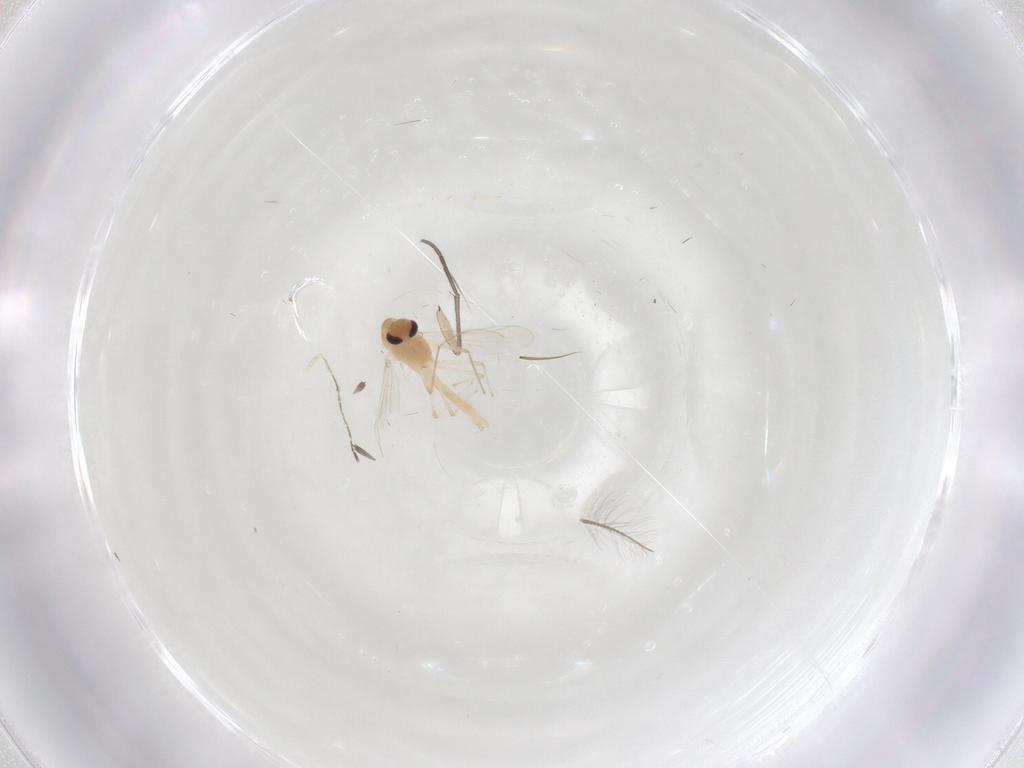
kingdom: Animalia
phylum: Arthropoda
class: Insecta
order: Diptera
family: Chironomidae
